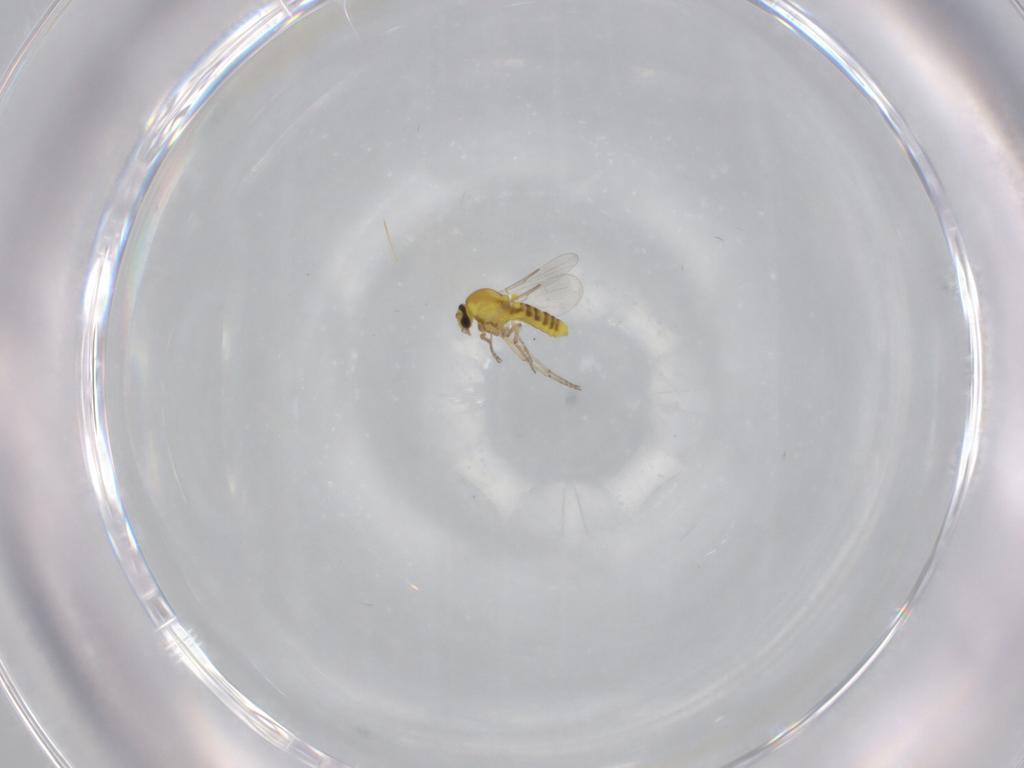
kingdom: Animalia
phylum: Arthropoda
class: Insecta
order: Diptera
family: Ceratopogonidae
